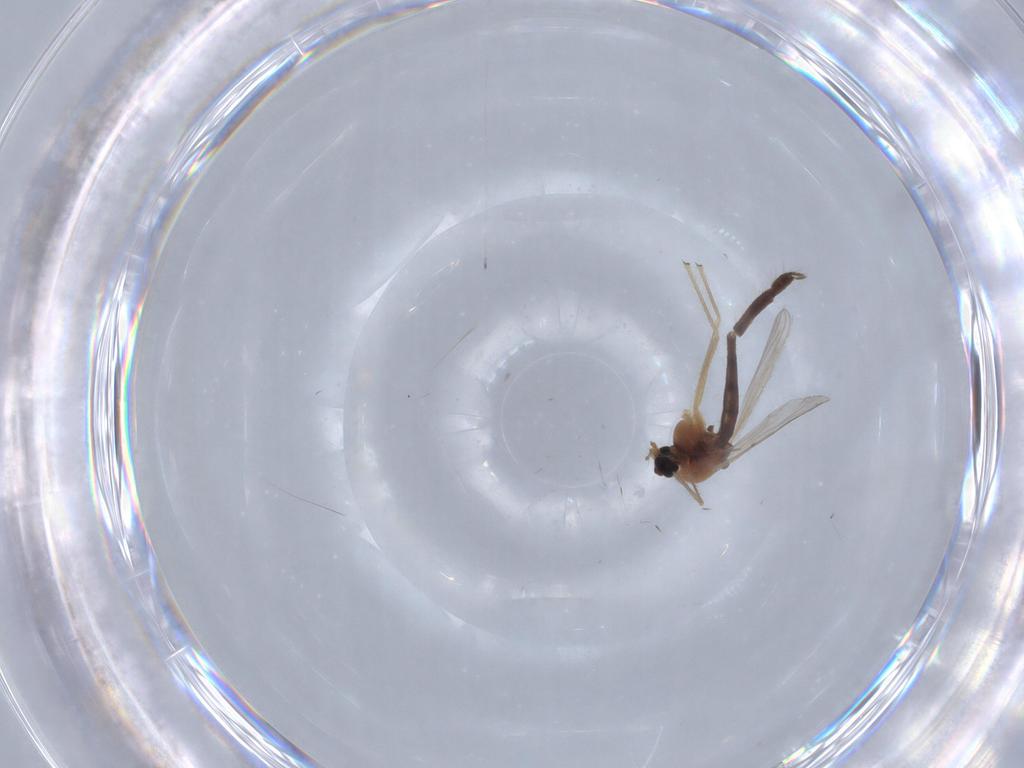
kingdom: Animalia
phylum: Arthropoda
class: Insecta
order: Diptera
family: Chironomidae
